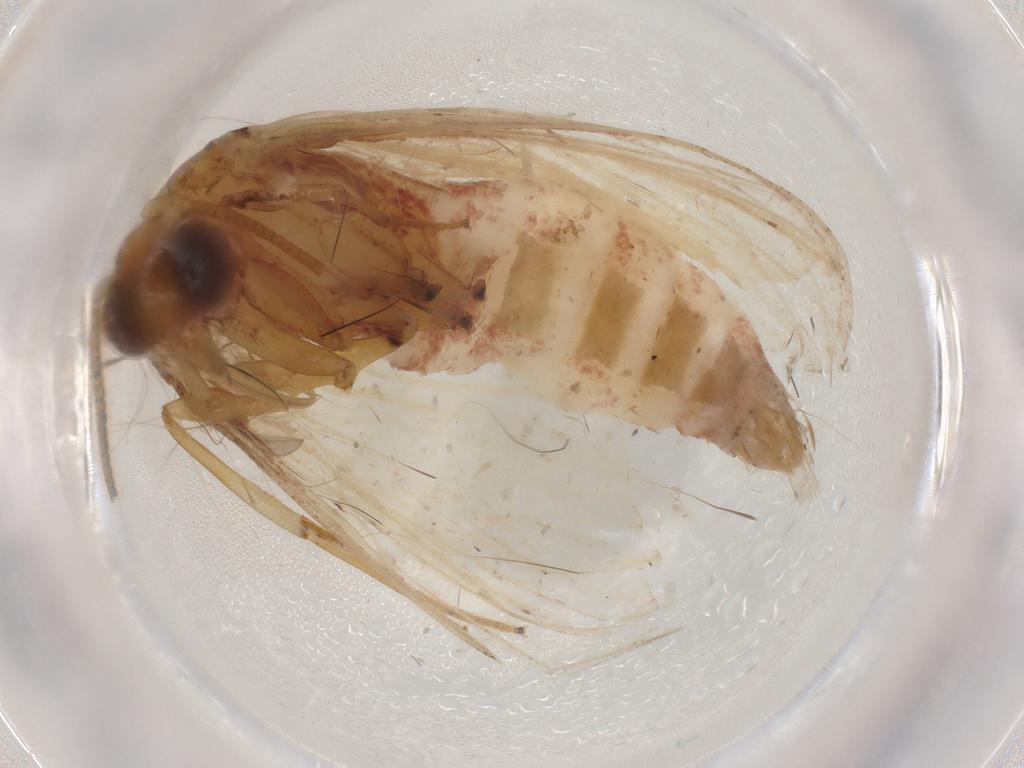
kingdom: Animalia
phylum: Arthropoda
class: Insecta
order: Lepidoptera
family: Pyralidae
